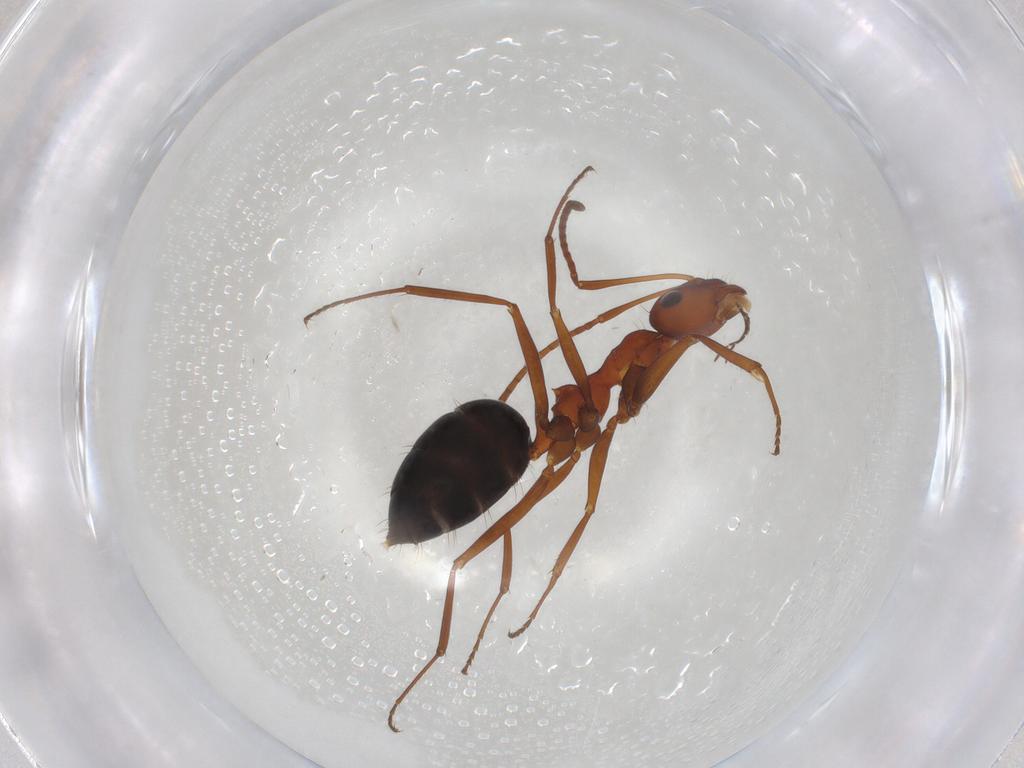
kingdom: Animalia
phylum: Arthropoda
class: Insecta
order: Hymenoptera
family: Formicidae
